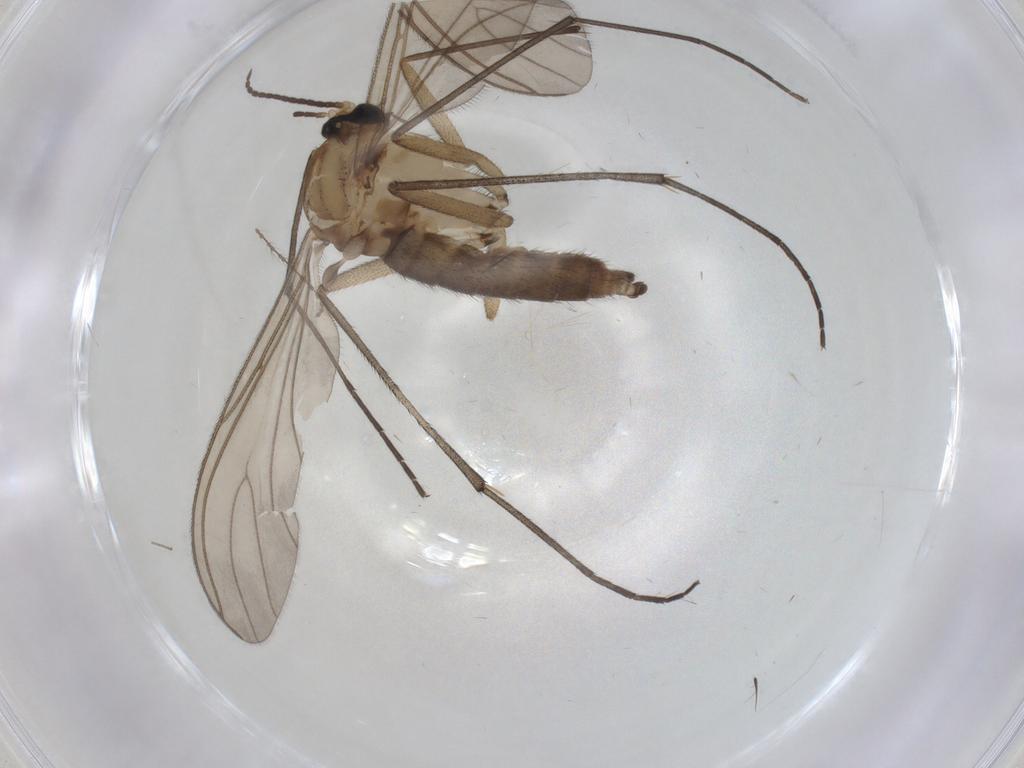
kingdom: Animalia
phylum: Arthropoda
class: Insecta
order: Diptera
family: Sciaridae
